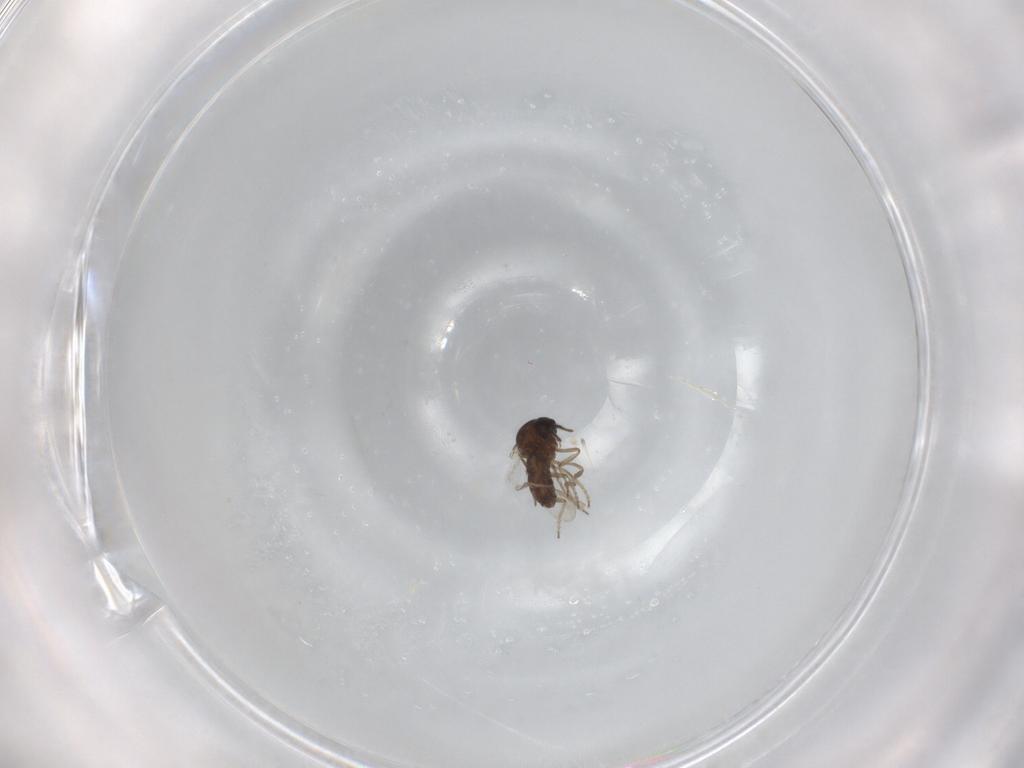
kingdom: Animalia
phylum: Arthropoda
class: Insecta
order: Diptera
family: Ceratopogonidae
